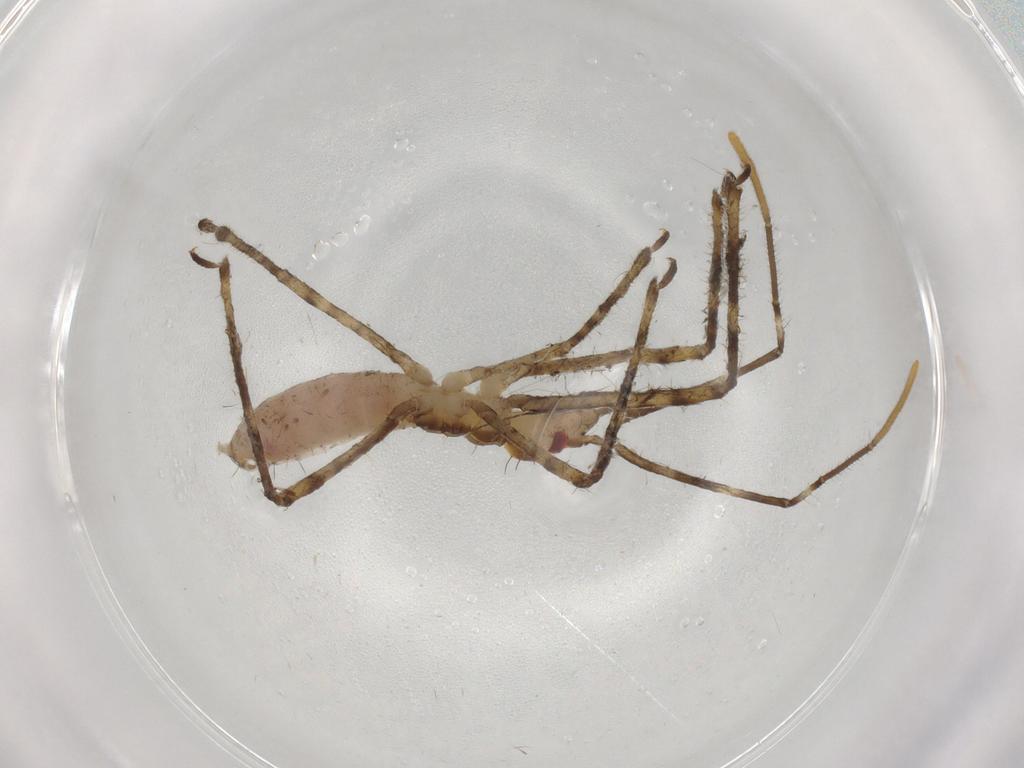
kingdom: Animalia
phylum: Arthropoda
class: Insecta
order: Hemiptera
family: Reduviidae
